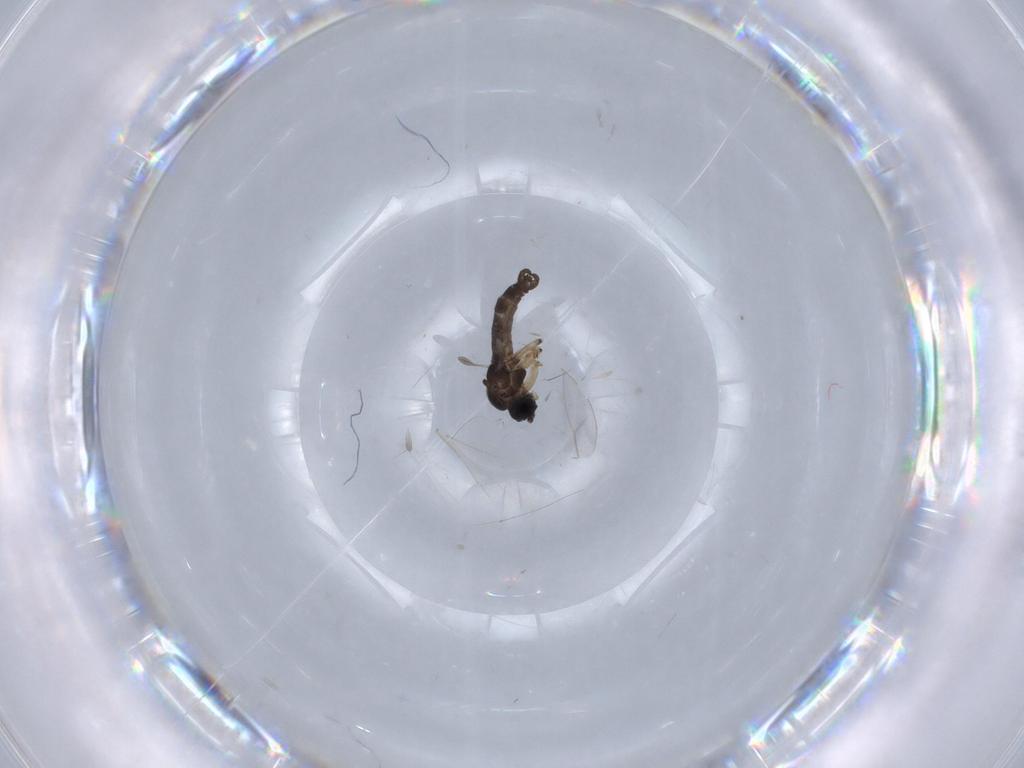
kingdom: Animalia
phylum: Arthropoda
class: Insecta
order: Diptera
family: Sciaridae
